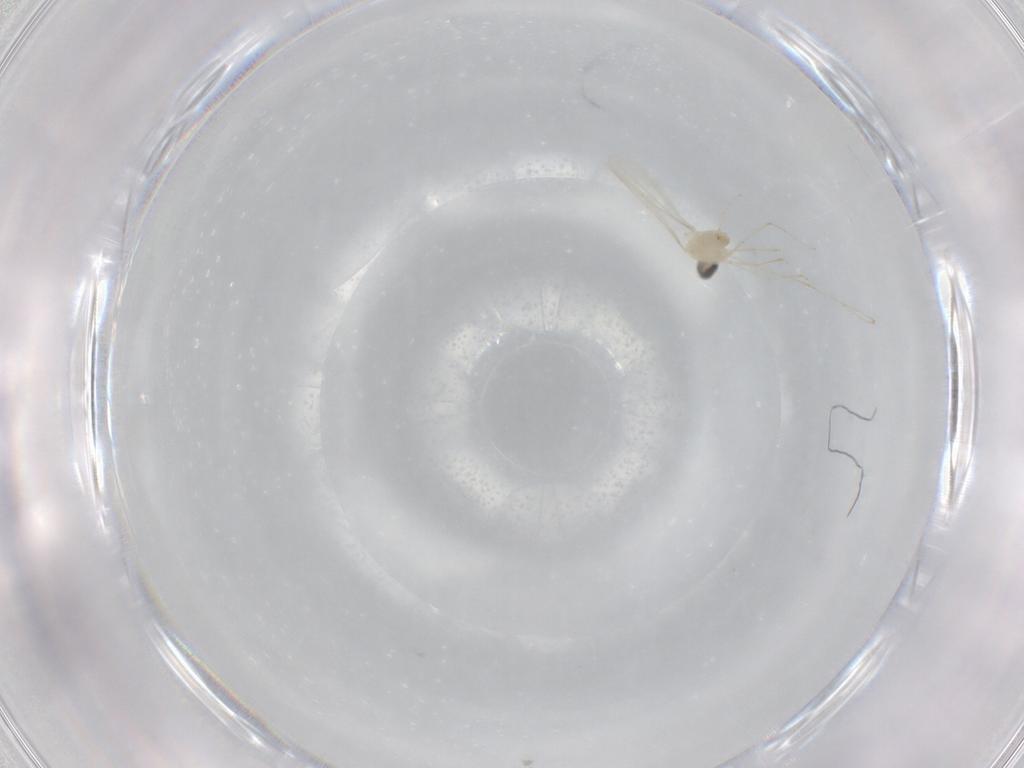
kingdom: Animalia
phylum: Arthropoda
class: Insecta
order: Diptera
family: Cecidomyiidae
